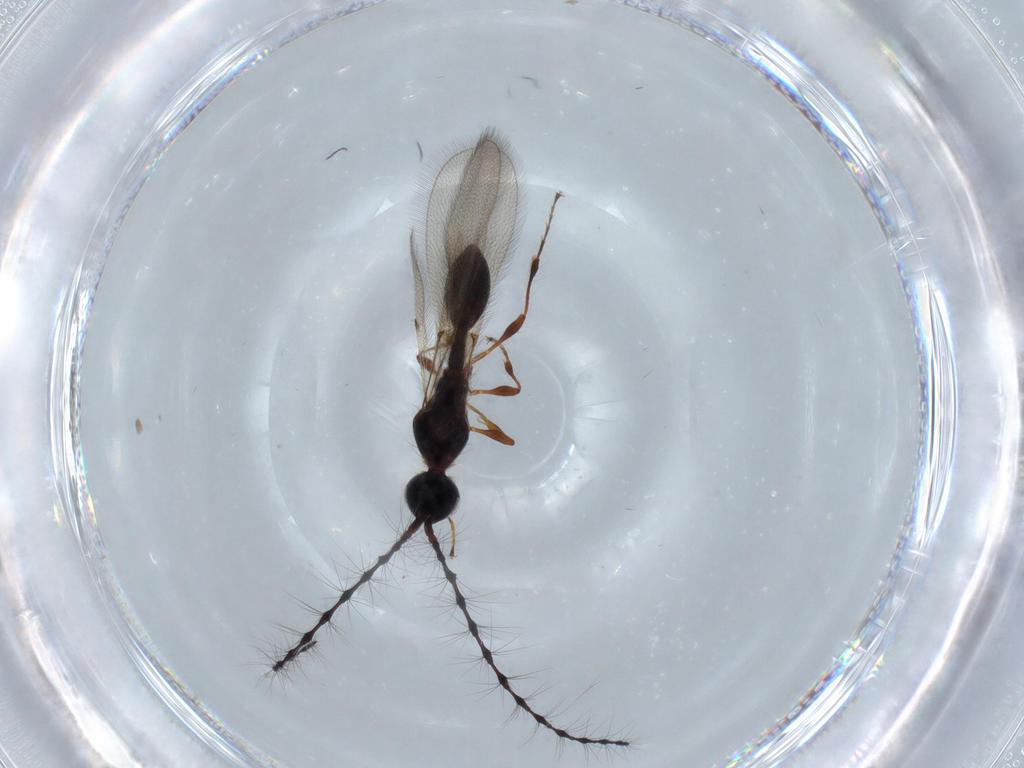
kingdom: Animalia
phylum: Arthropoda
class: Insecta
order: Hymenoptera
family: Diapriidae
